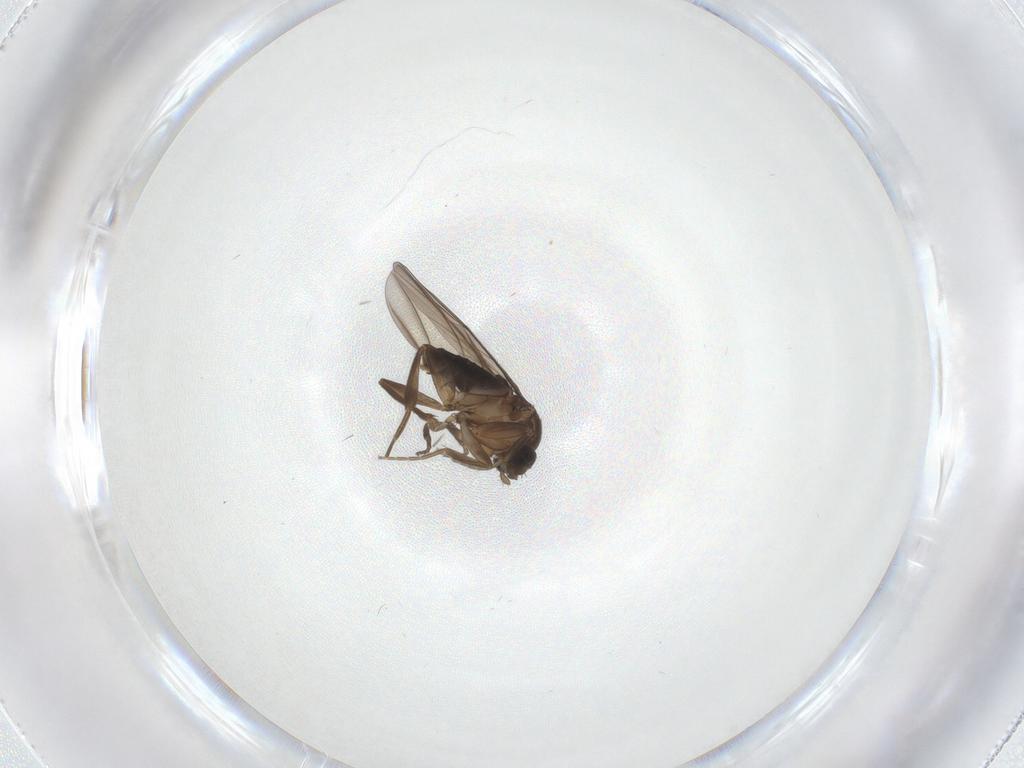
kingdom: Animalia
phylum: Arthropoda
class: Insecta
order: Diptera
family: Phoridae
